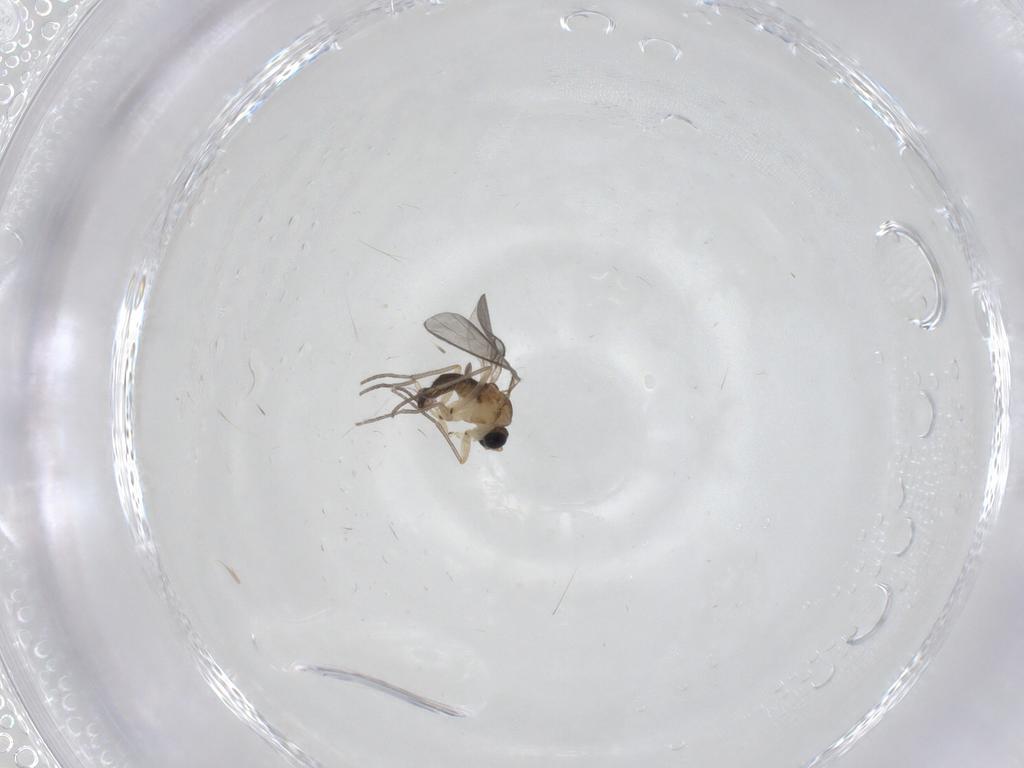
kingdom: Animalia
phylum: Arthropoda
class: Insecta
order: Diptera
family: Sciaridae
